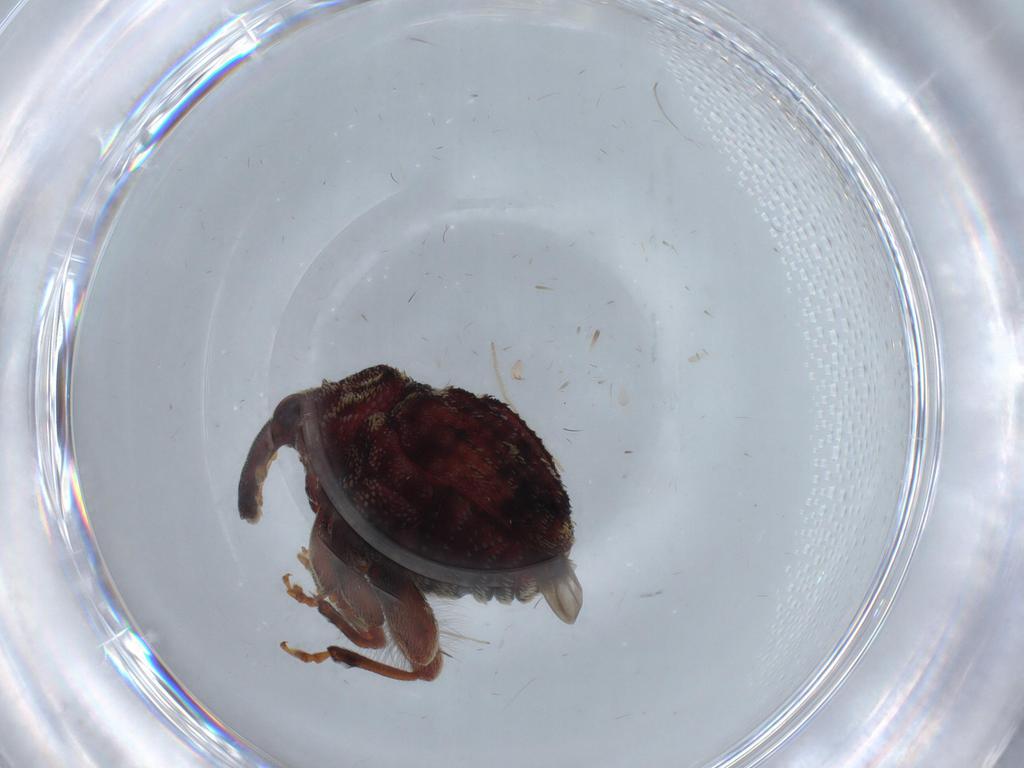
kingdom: Animalia
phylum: Arthropoda
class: Insecta
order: Coleoptera
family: Curculionidae
